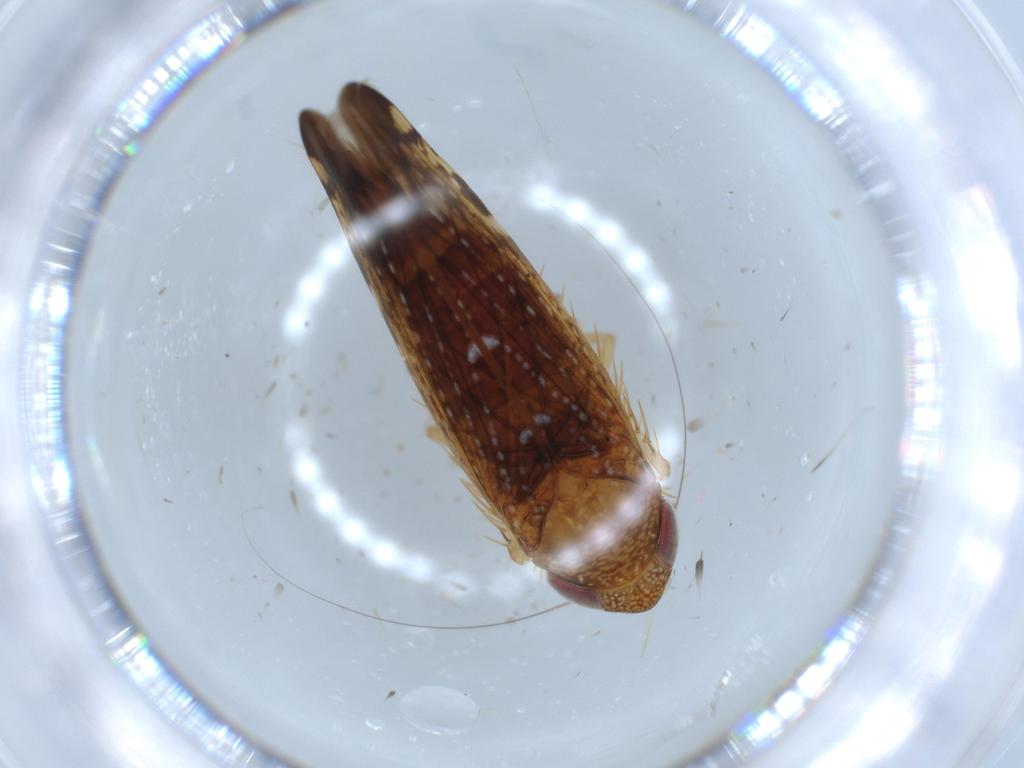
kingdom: Animalia
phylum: Arthropoda
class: Insecta
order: Hemiptera
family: Cicadellidae
